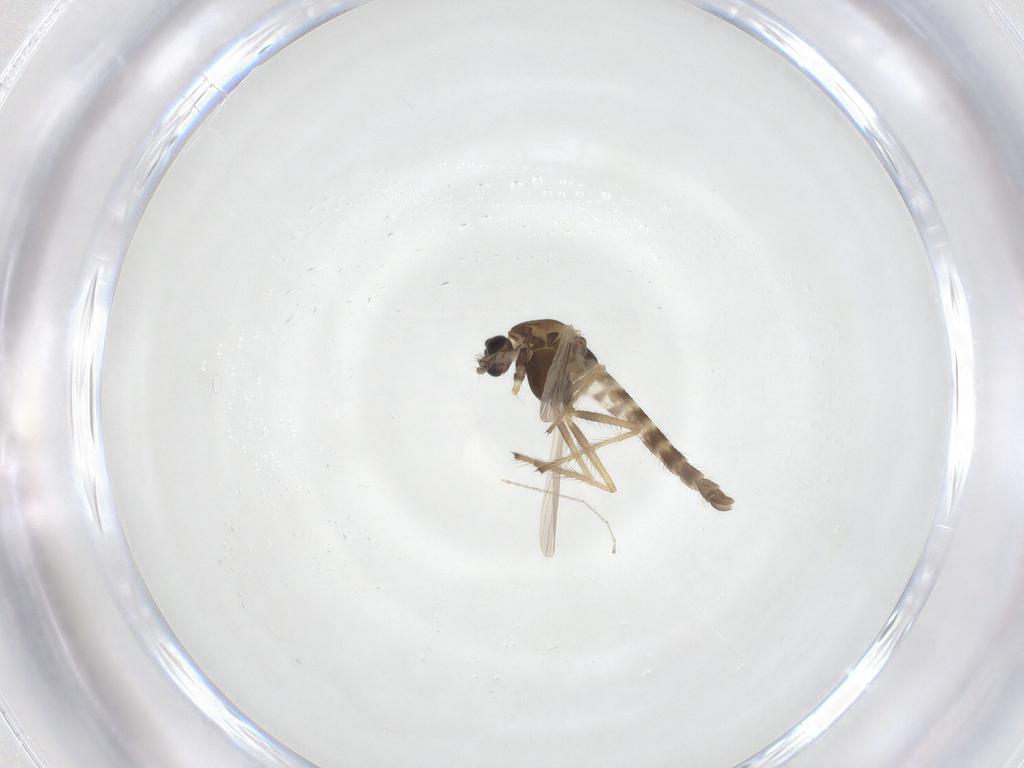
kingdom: Animalia
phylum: Arthropoda
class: Insecta
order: Diptera
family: Chironomidae
